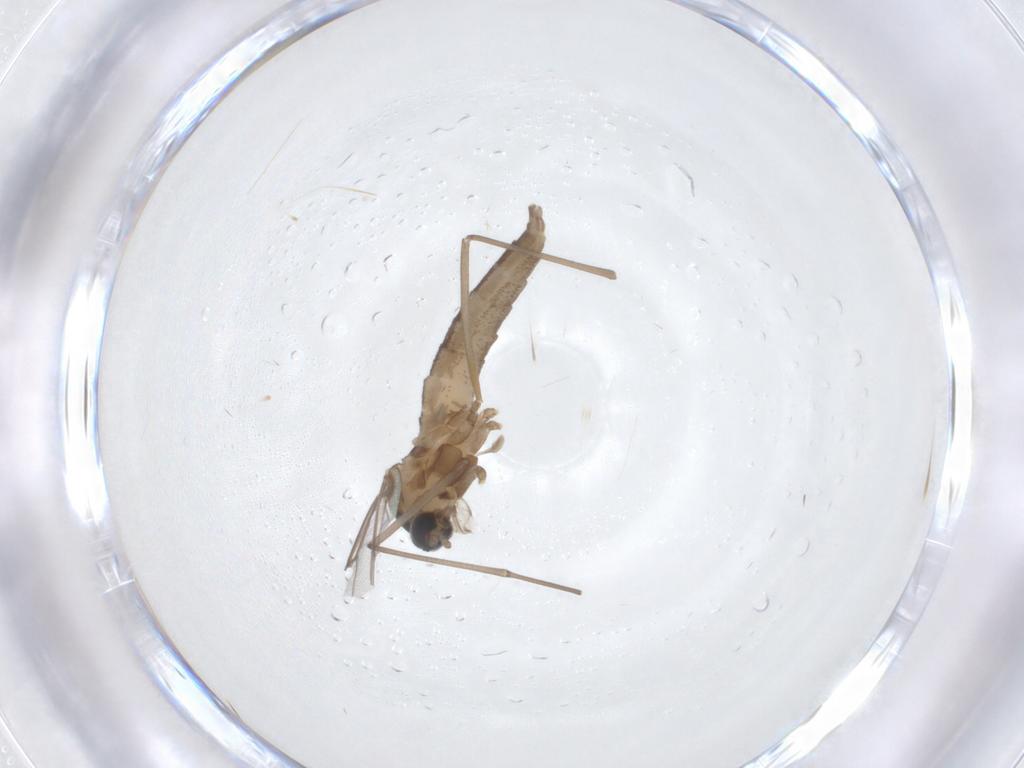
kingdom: Animalia
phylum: Arthropoda
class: Insecta
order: Diptera
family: Cecidomyiidae
